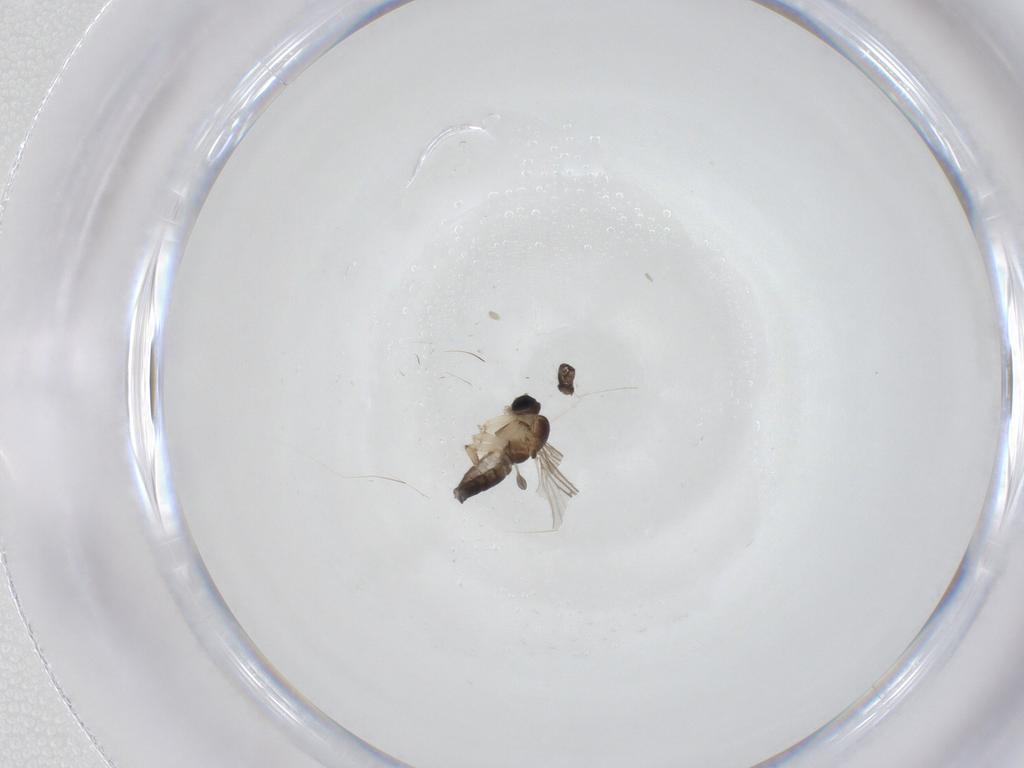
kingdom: Animalia
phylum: Arthropoda
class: Insecta
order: Diptera
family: Sciaridae
